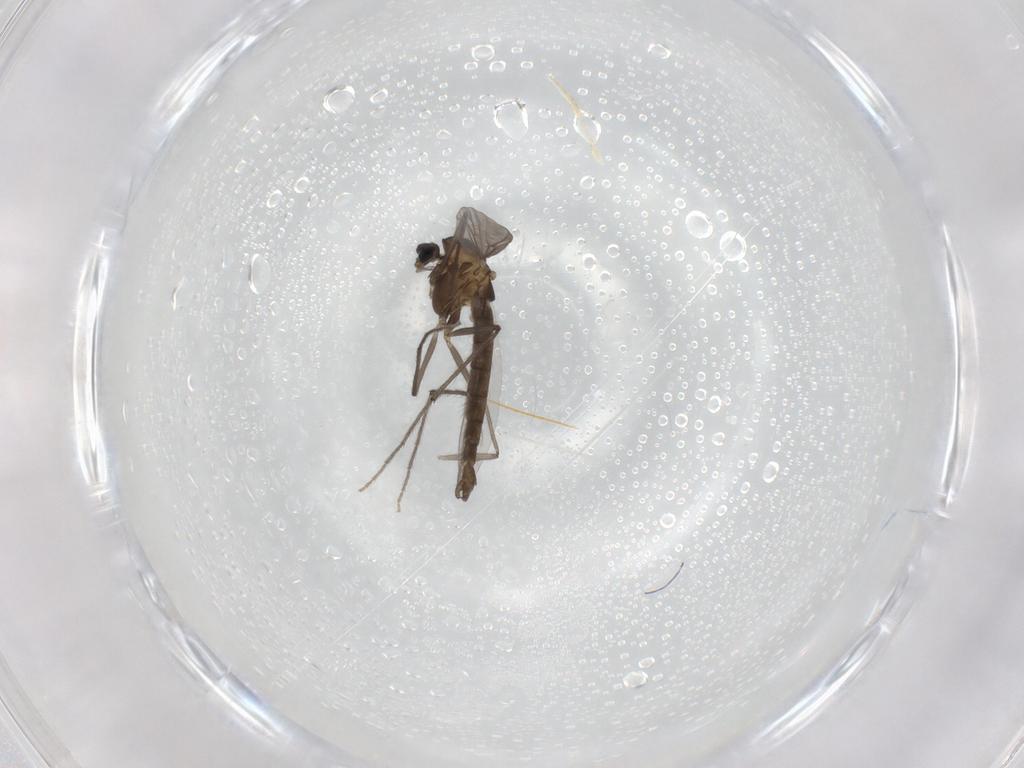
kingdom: Animalia
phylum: Arthropoda
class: Insecta
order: Diptera
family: Chironomidae
